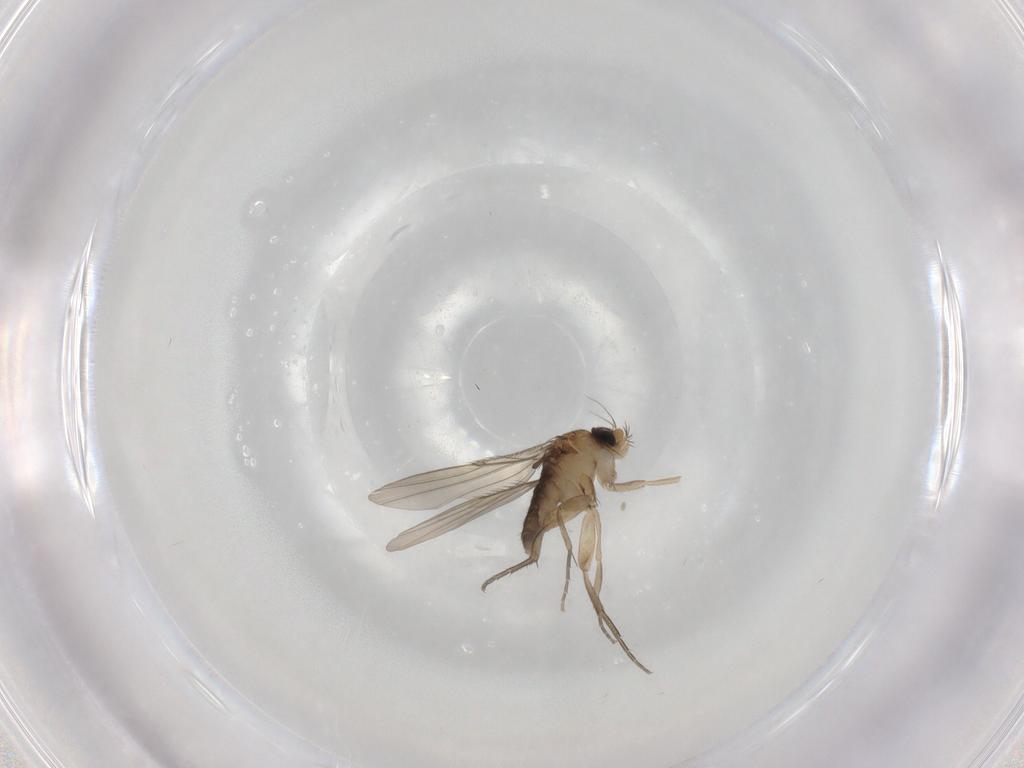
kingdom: Animalia
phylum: Arthropoda
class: Insecta
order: Diptera
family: Phoridae
